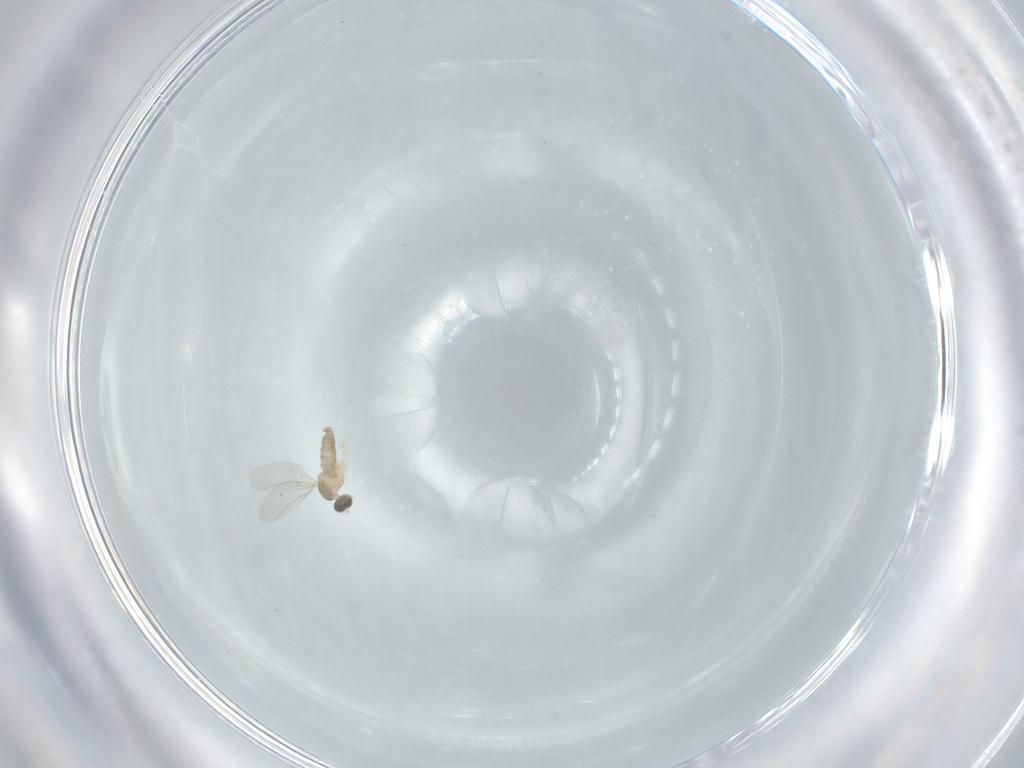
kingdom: Animalia
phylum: Arthropoda
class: Insecta
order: Diptera
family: Cecidomyiidae
